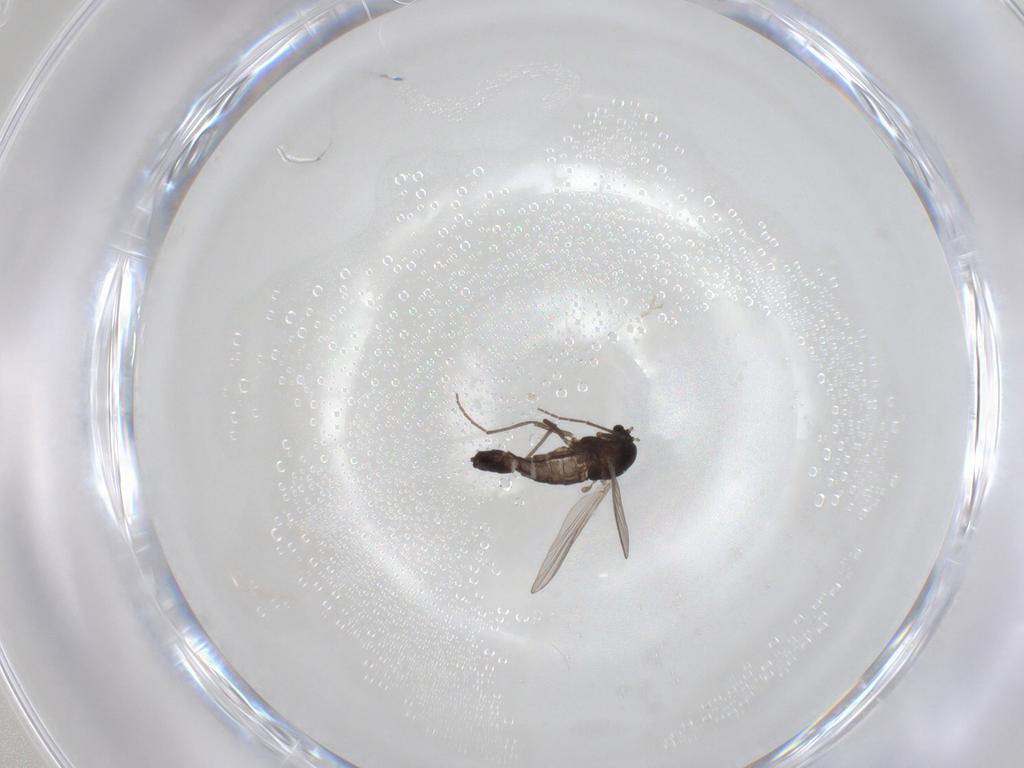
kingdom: Animalia
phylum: Arthropoda
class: Insecta
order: Diptera
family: Chironomidae
